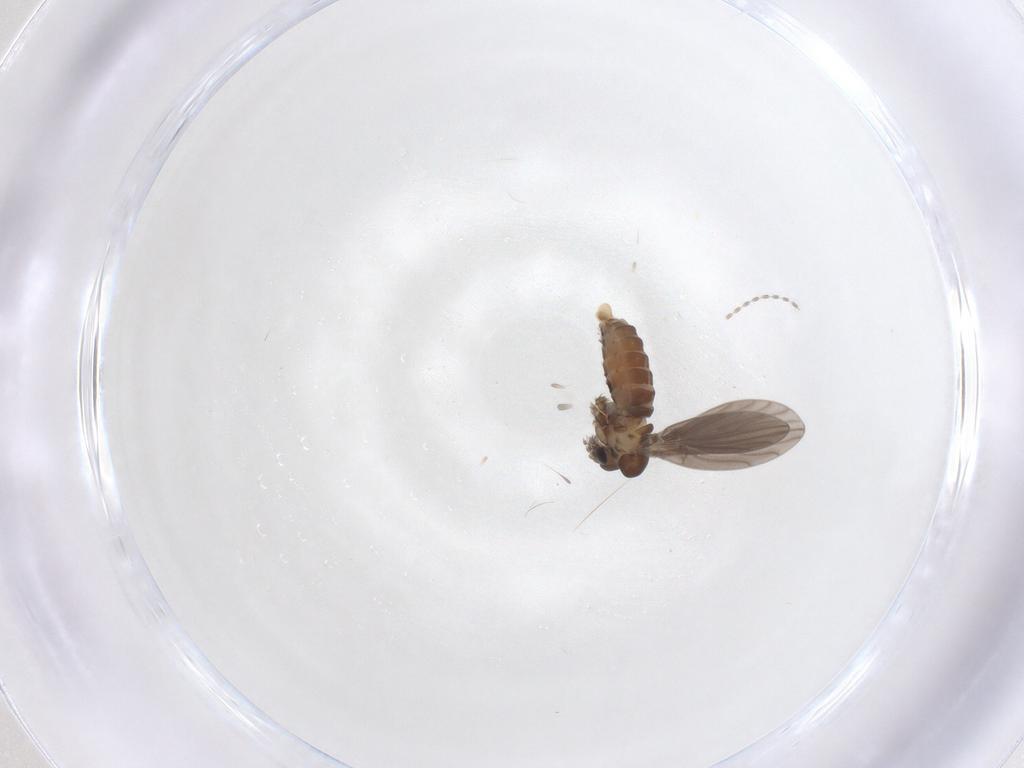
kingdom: Animalia
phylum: Arthropoda
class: Insecta
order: Diptera
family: Cecidomyiidae
